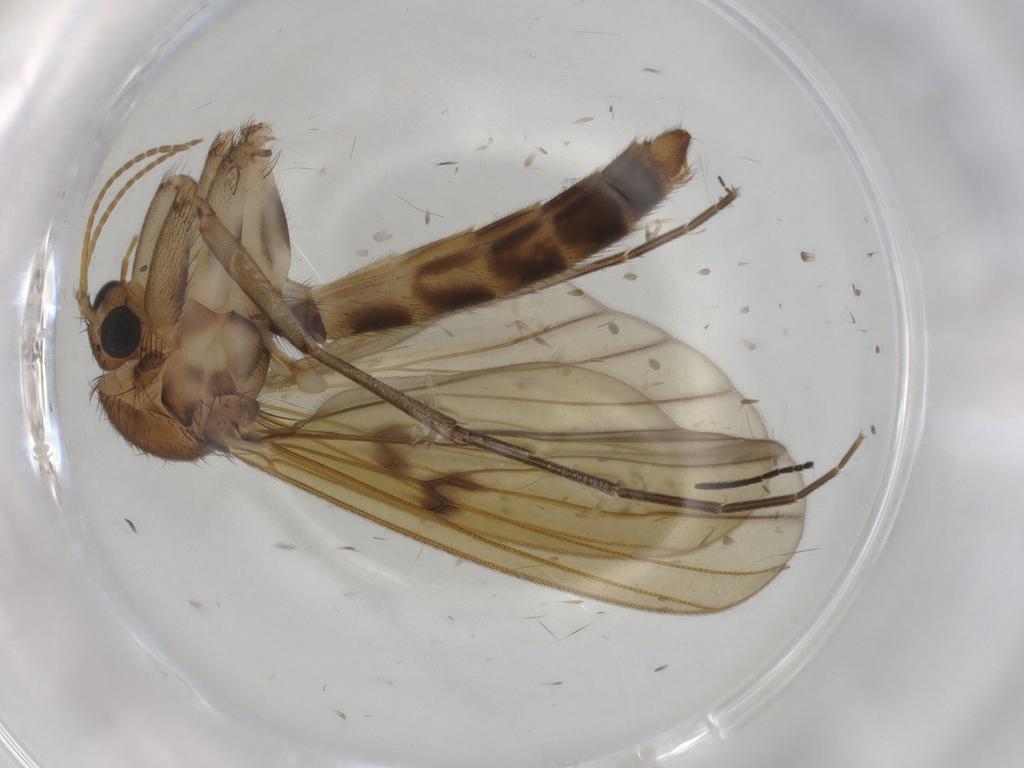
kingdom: Animalia
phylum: Arthropoda
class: Insecta
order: Diptera
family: Sciaridae
